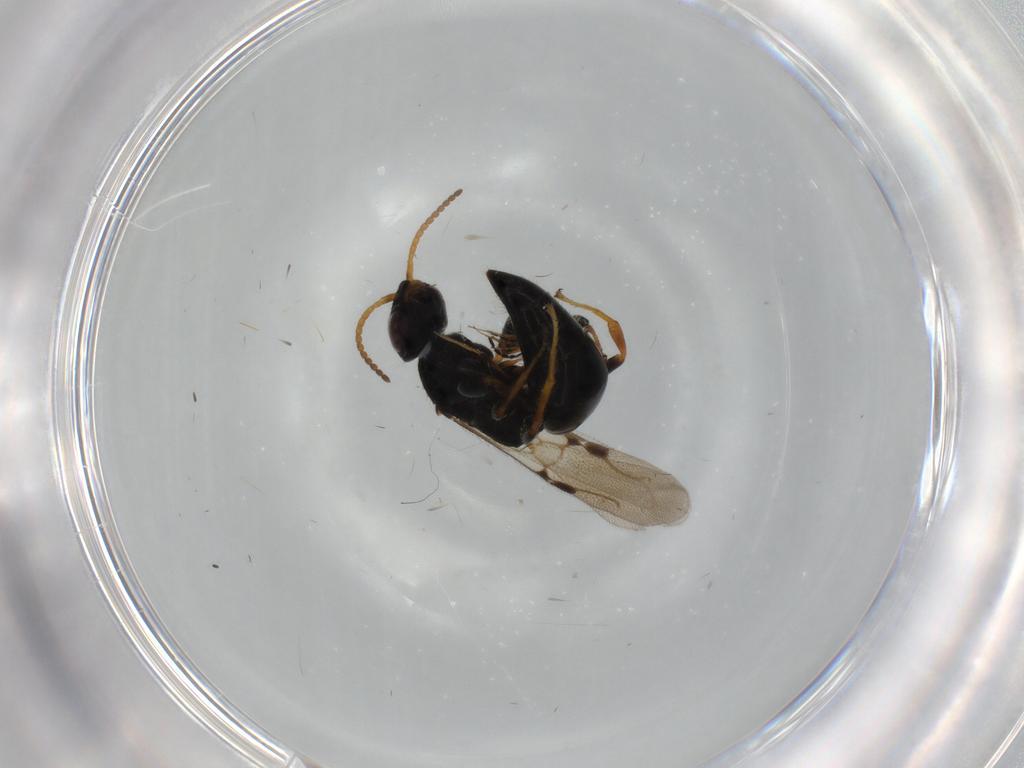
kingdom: Animalia
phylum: Arthropoda
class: Insecta
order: Hymenoptera
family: Bethylidae
